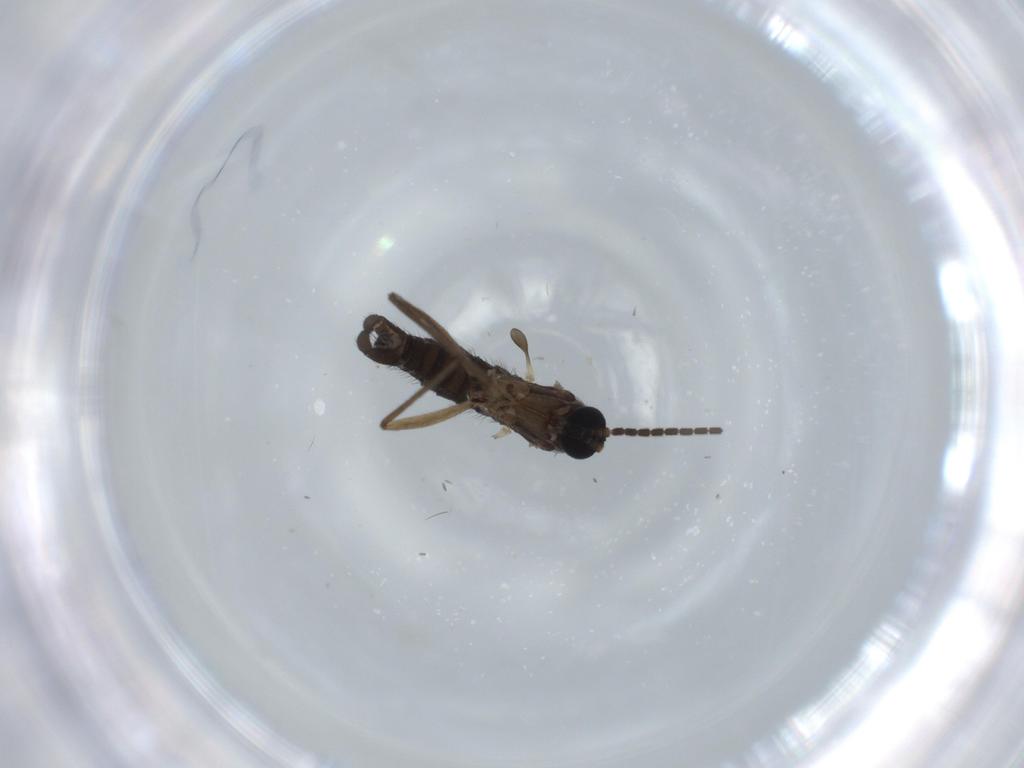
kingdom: Animalia
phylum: Arthropoda
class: Insecta
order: Diptera
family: Sciaridae
